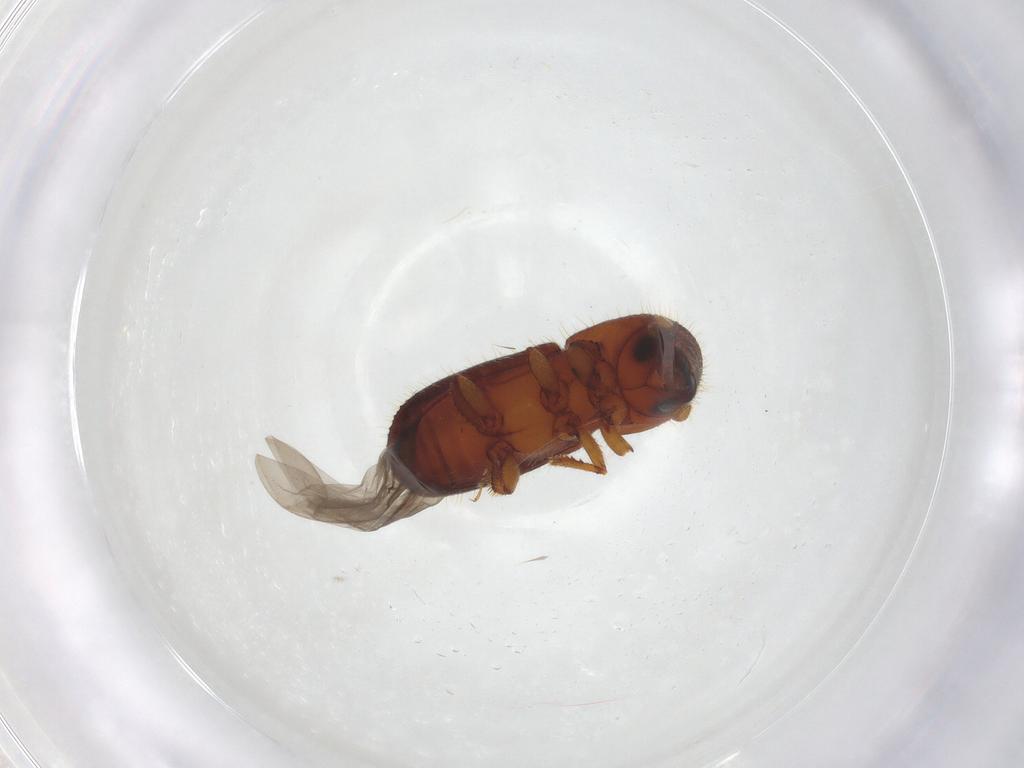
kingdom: Animalia
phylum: Arthropoda
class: Insecta
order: Coleoptera
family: Curculionidae
